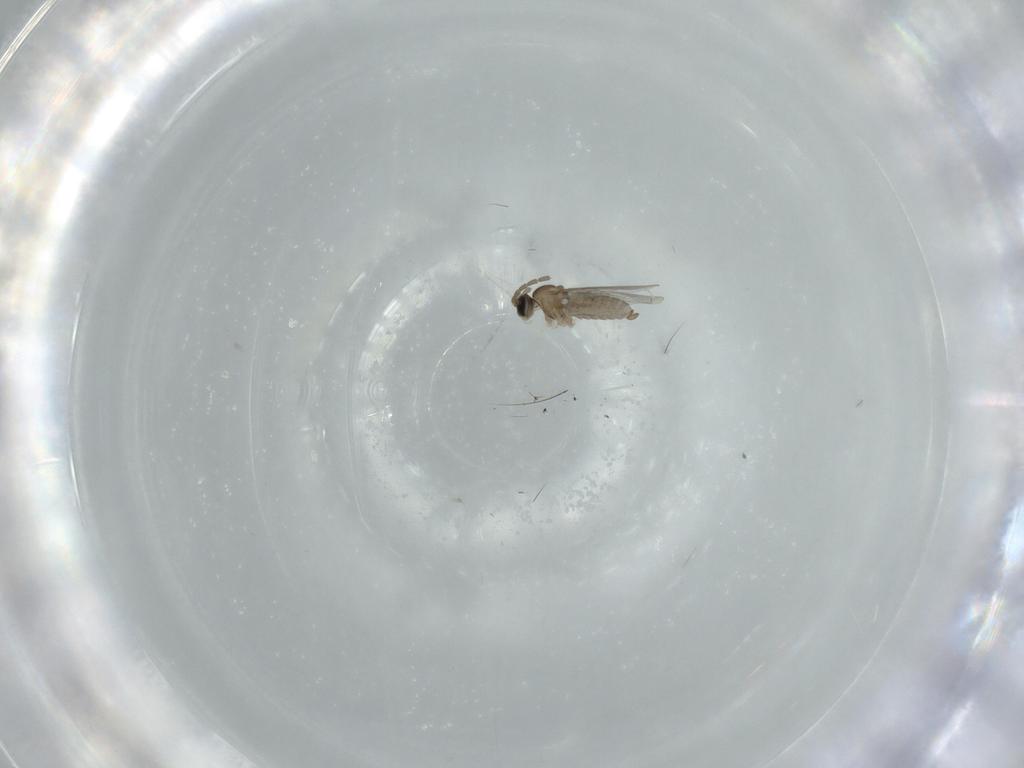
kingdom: Animalia
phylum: Arthropoda
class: Insecta
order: Diptera
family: Cecidomyiidae
